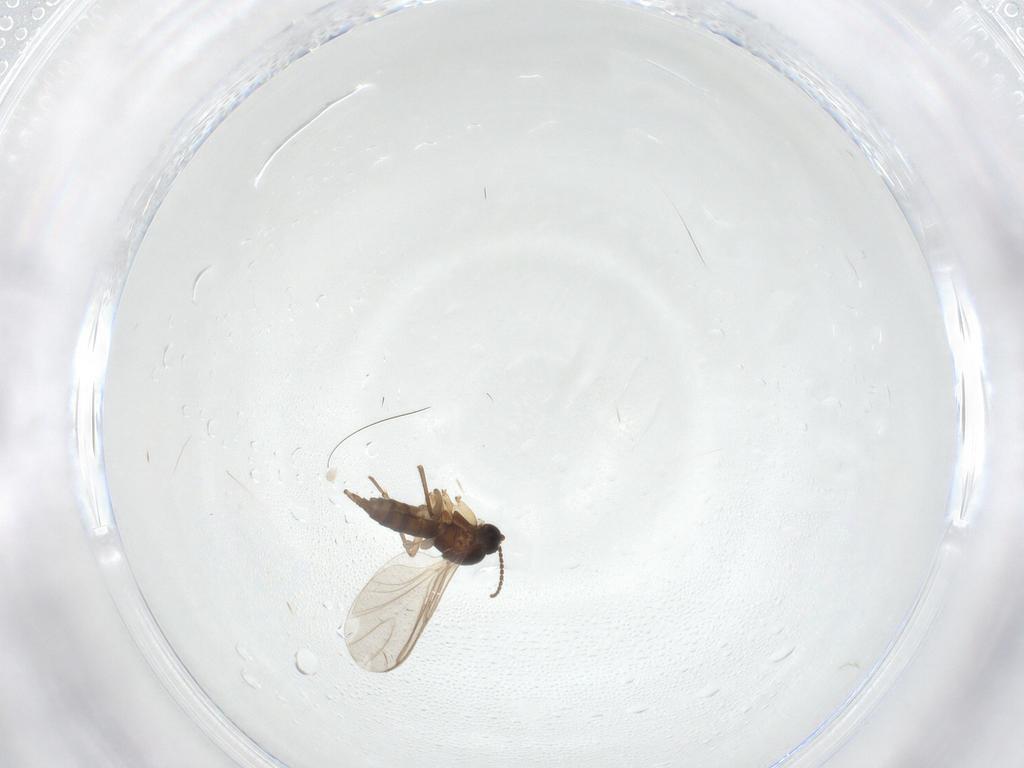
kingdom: Animalia
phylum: Arthropoda
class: Insecta
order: Diptera
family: Sciaridae
